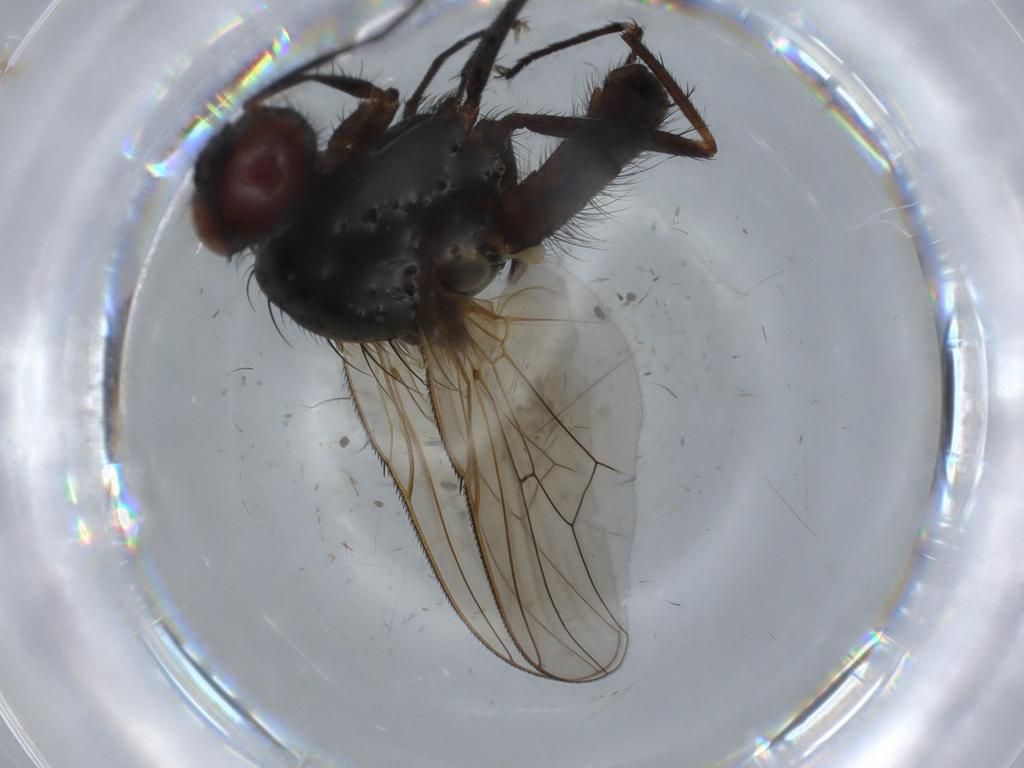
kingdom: Animalia
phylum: Arthropoda
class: Insecta
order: Diptera
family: Anthomyiidae
